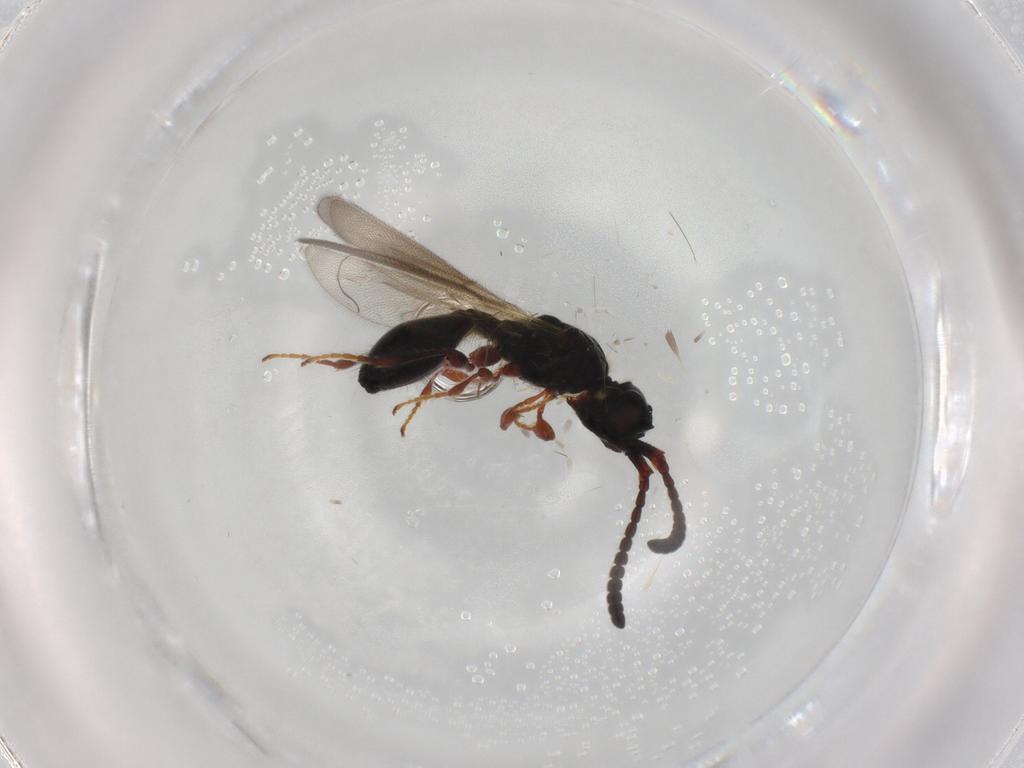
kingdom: Animalia
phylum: Arthropoda
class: Insecta
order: Hymenoptera
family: Diapriidae
